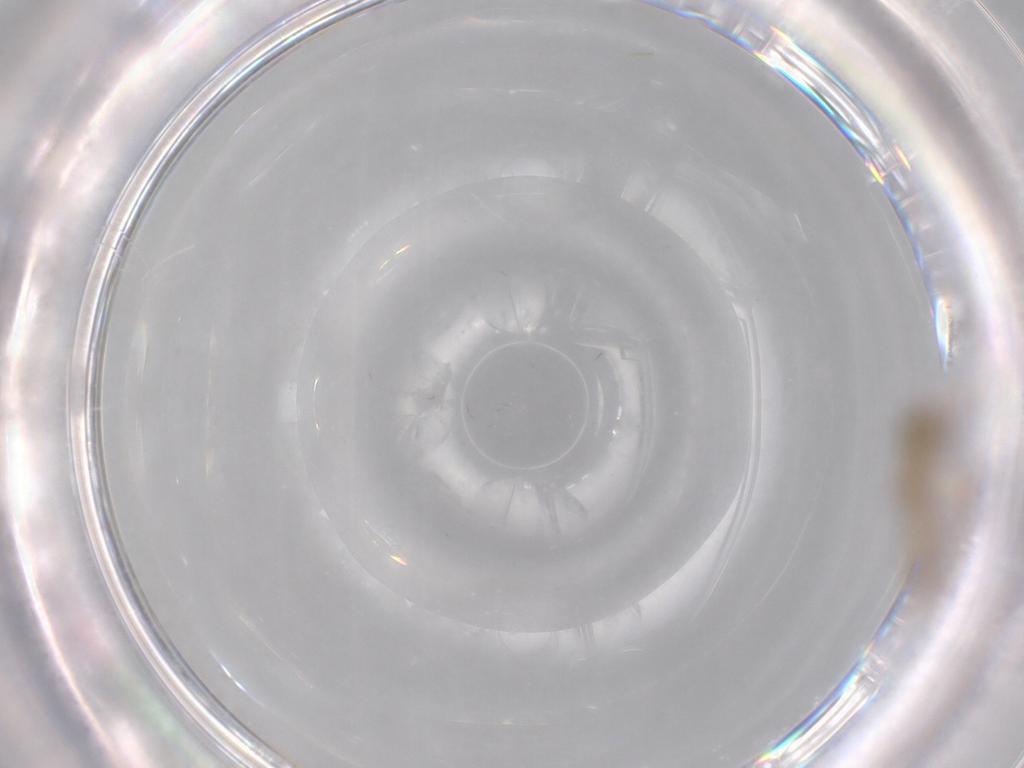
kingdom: Animalia
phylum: Arthropoda
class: Insecta
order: Diptera
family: Cecidomyiidae
